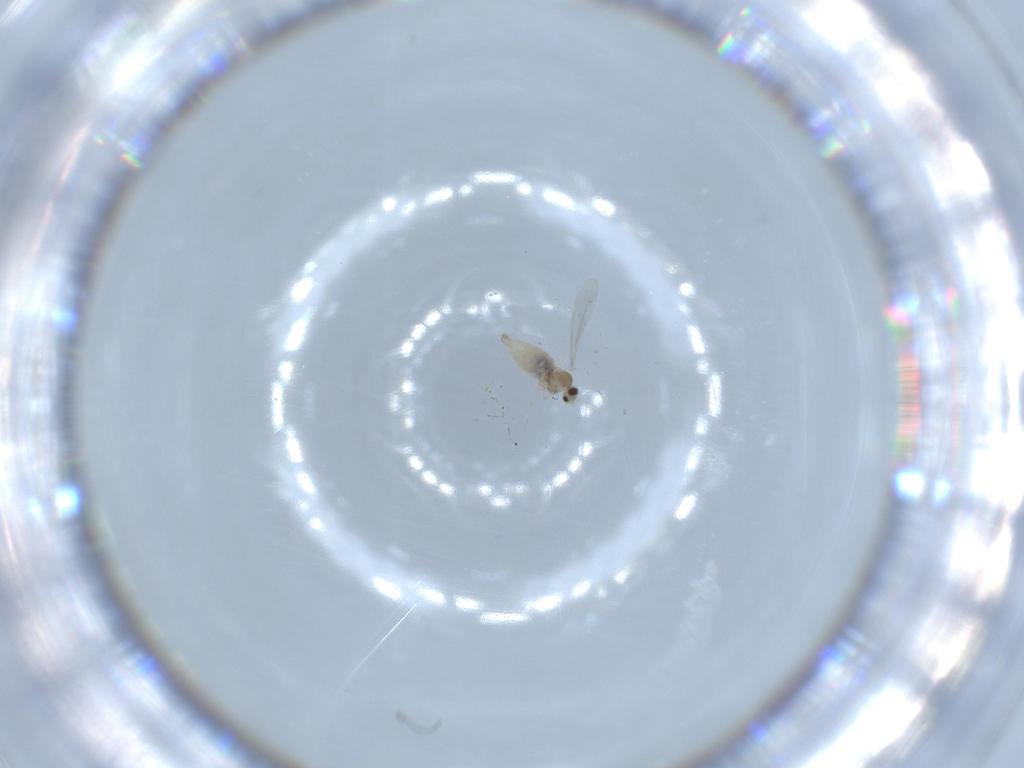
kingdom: Animalia
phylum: Arthropoda
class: Insecta
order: Diptera
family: Cecidomyiidae
